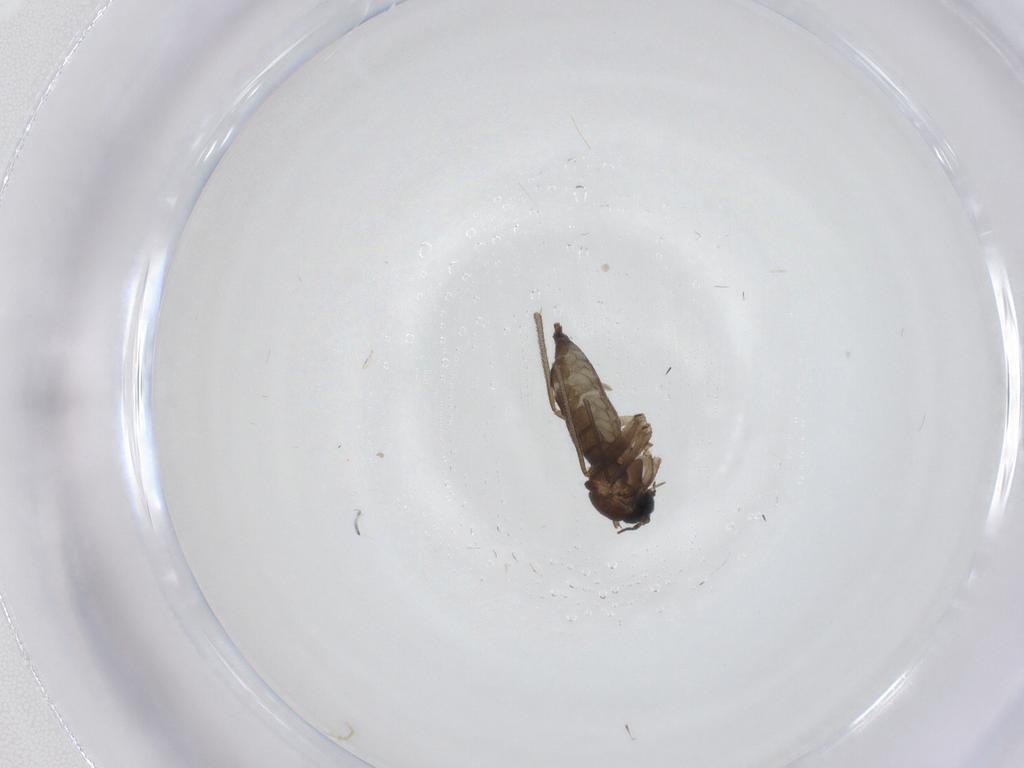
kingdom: Animalia
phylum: Arthropoda
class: Insecta
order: Diptera
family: Sciaridae
